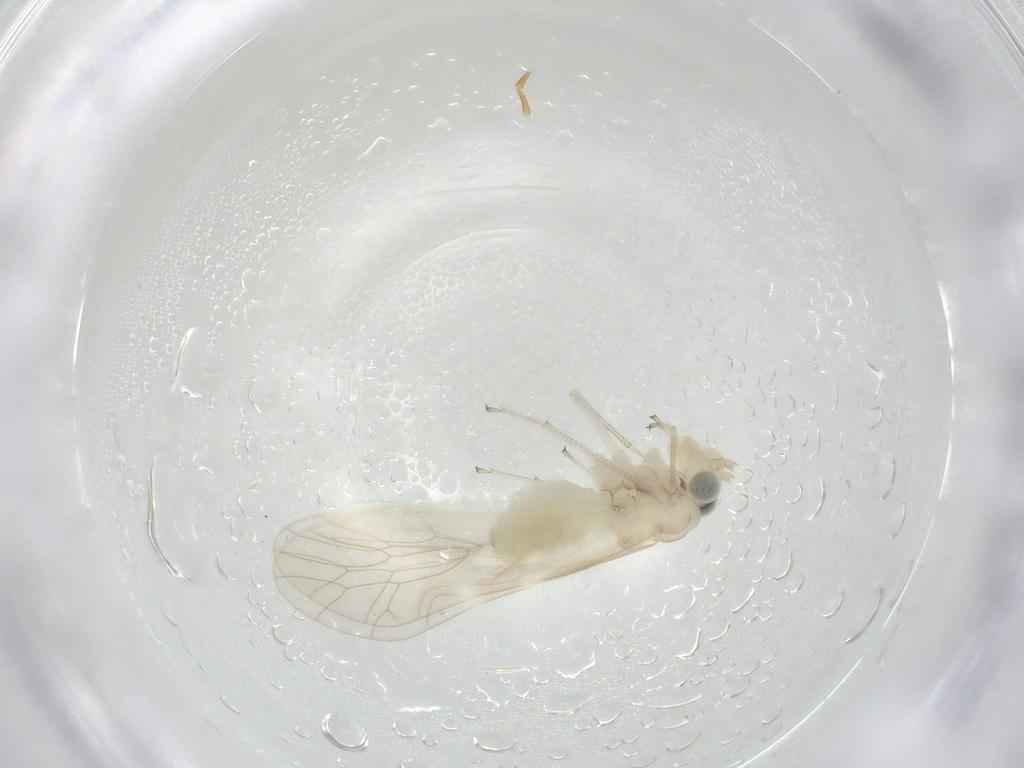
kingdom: Animalia
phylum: Arthropoda
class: Insecta
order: Psocodea
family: Caeciliusidae
